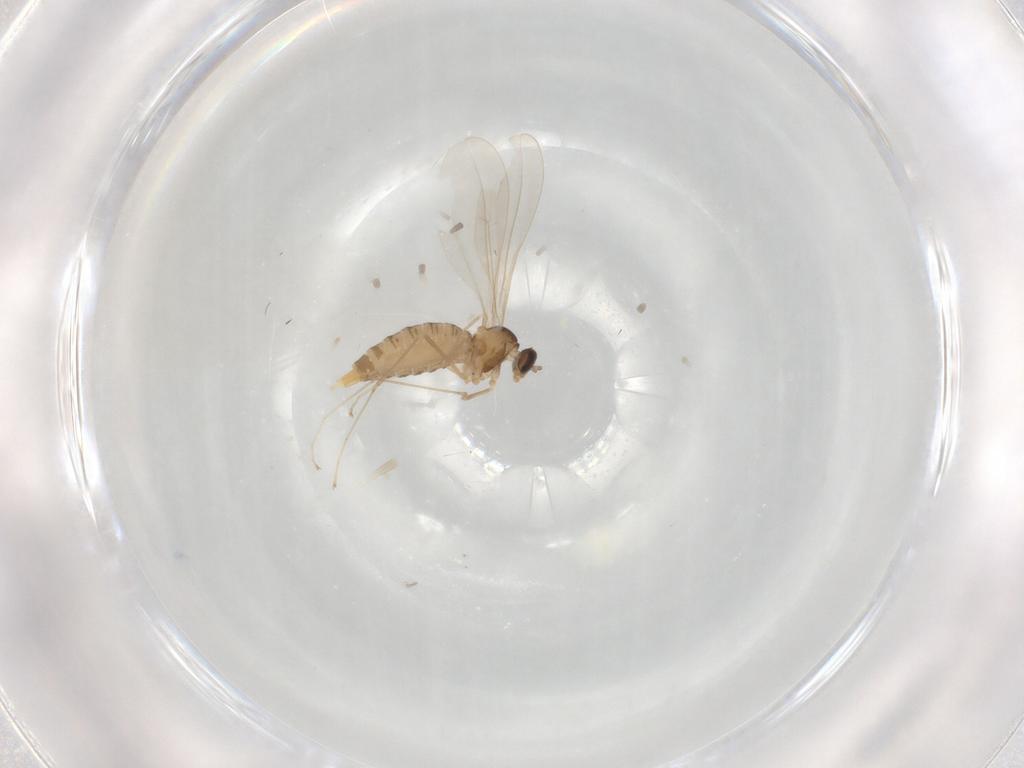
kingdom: Animalia
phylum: Arthropoda
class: Insecta
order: Diptera
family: Cecidomyiidae
